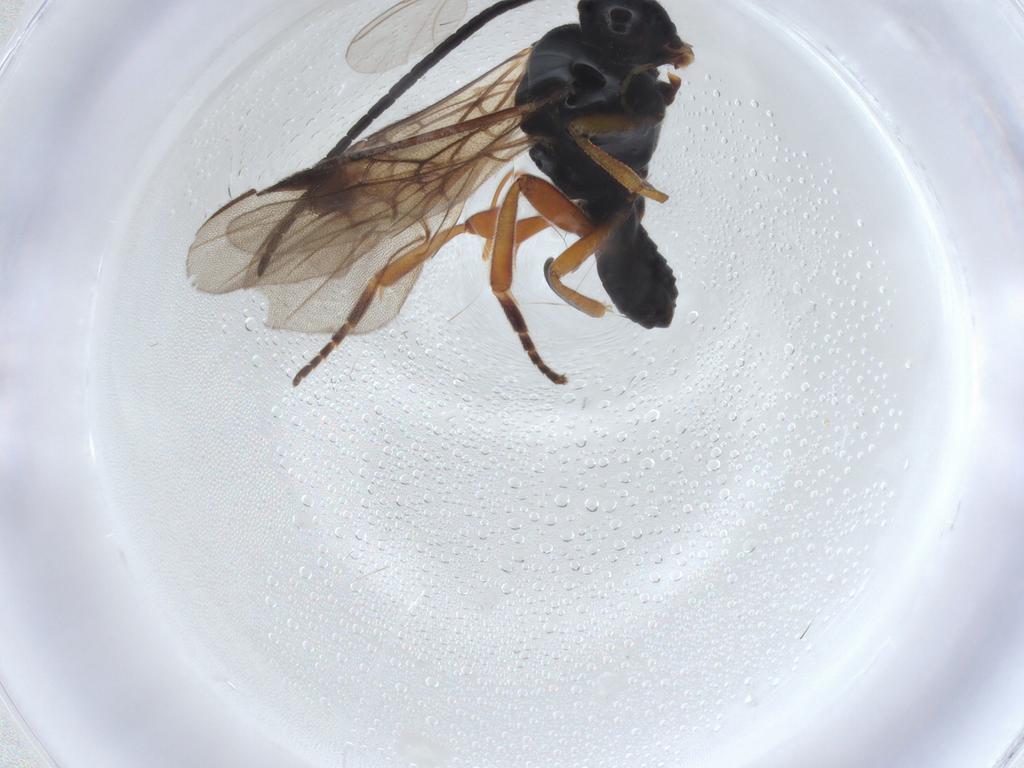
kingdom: Animalia
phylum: Arthropoda
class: Insecta
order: Hymenoptera
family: Braconidae
